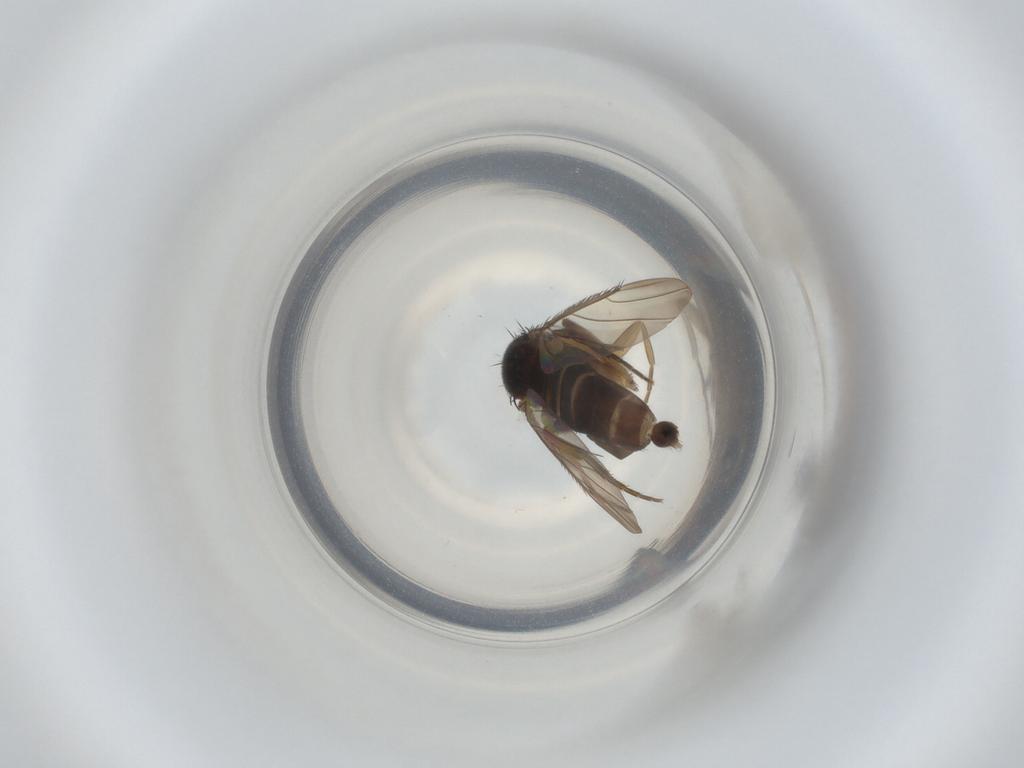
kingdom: Animalia
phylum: Arthropoda
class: Insecta
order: Diptera
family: Phoridae
